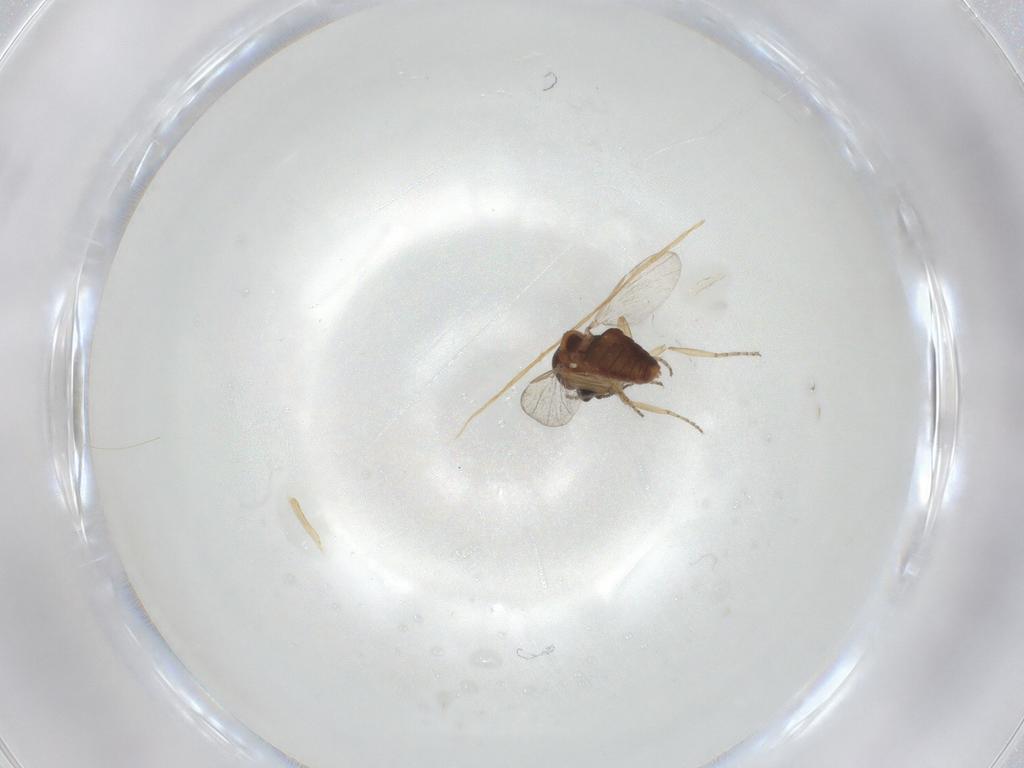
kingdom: Animalia
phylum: Arthropoda
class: Insecta
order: Diptera
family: Ceratopogonidae
